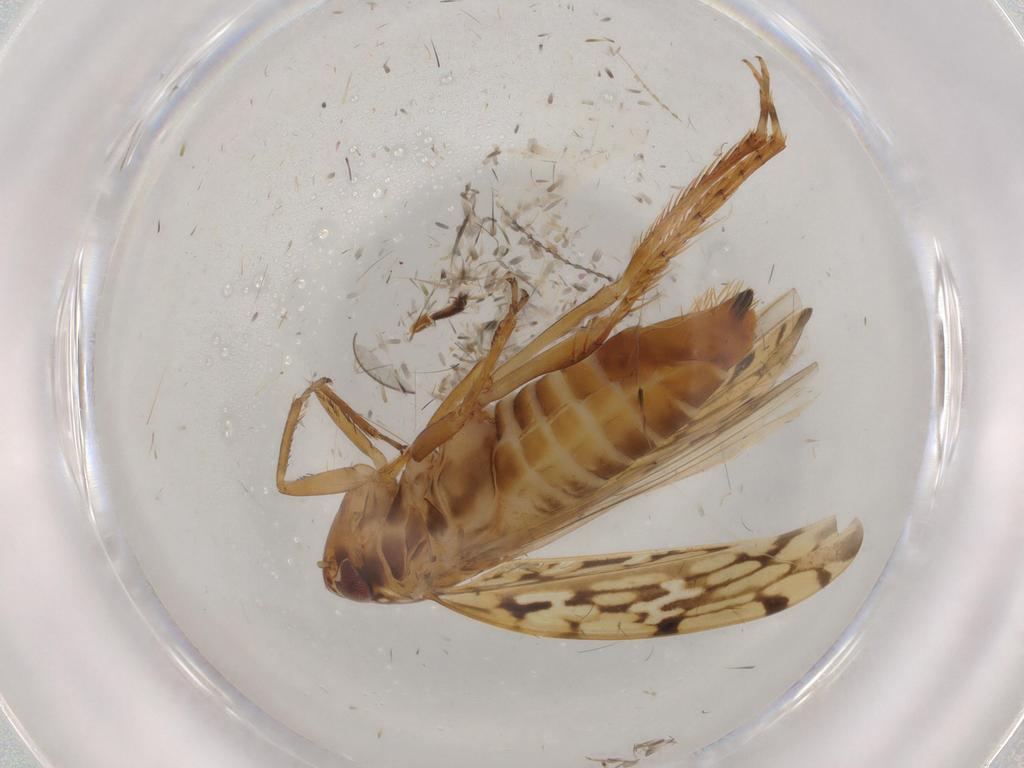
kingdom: Animalia
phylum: Arthropoda
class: Insecta
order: Hemiptera
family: Cicadellidae
